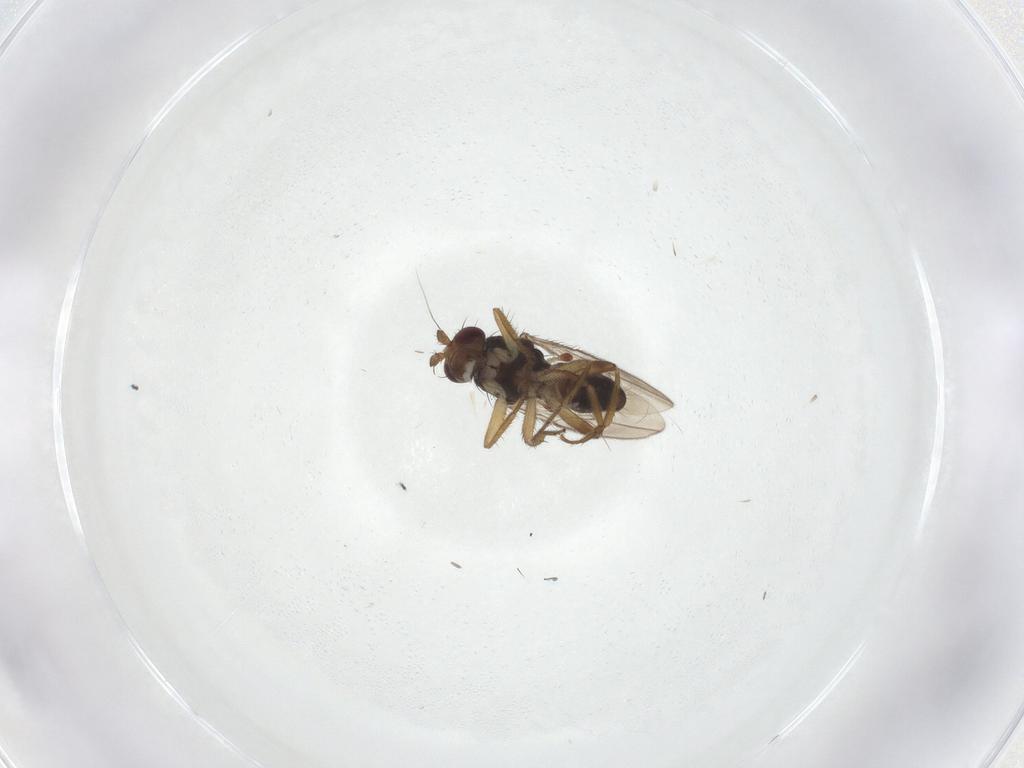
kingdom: Animalia
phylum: Arthropoda
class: Insecta
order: Diptera
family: Sphaeroceridae
